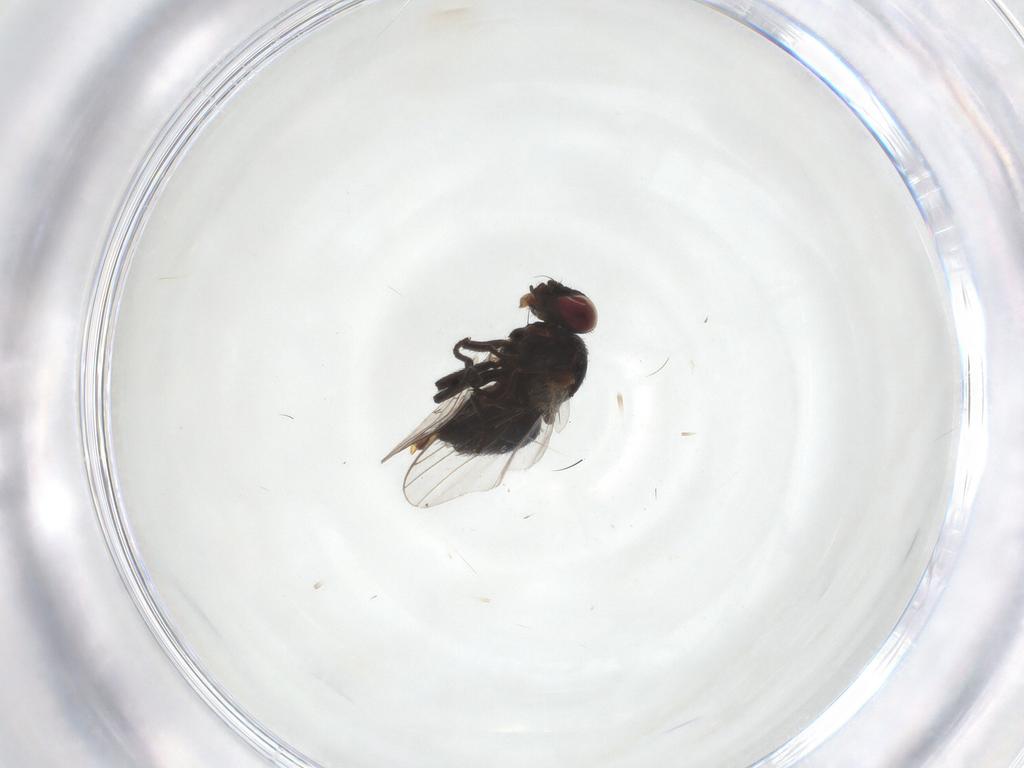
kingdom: Animalia
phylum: Arthropoda
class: Insecta
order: Diptera
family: Agromyzidae
